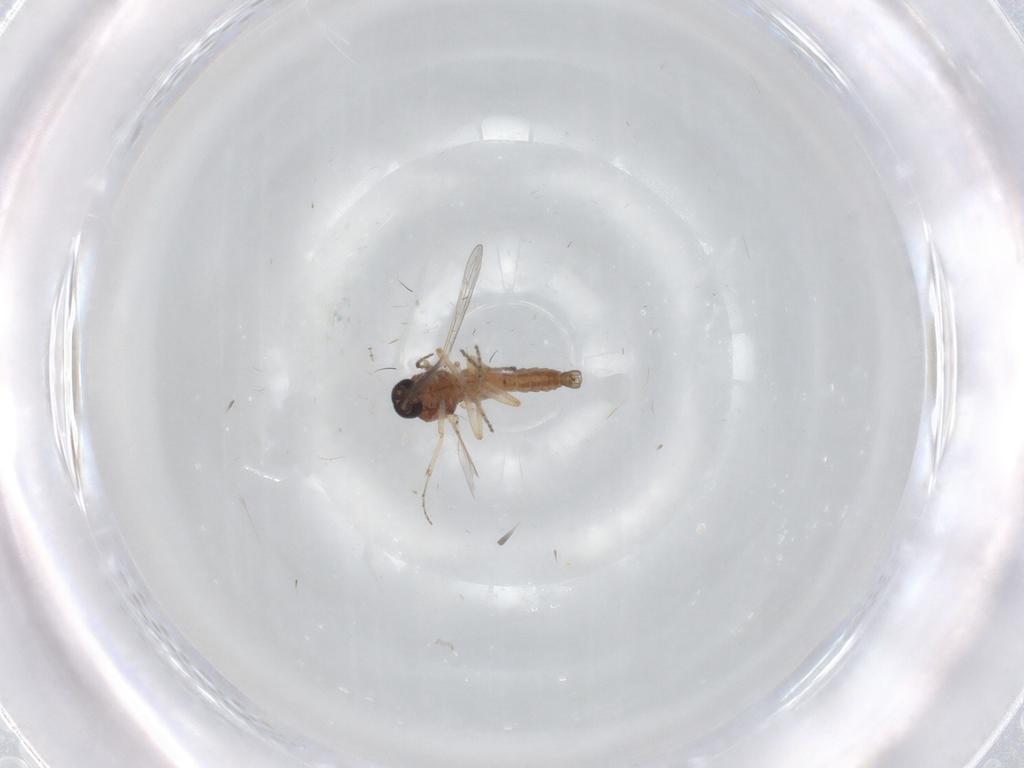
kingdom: Animalia
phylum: Arthropoda
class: Insecta
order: Diptera
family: Ceratopogonidae
